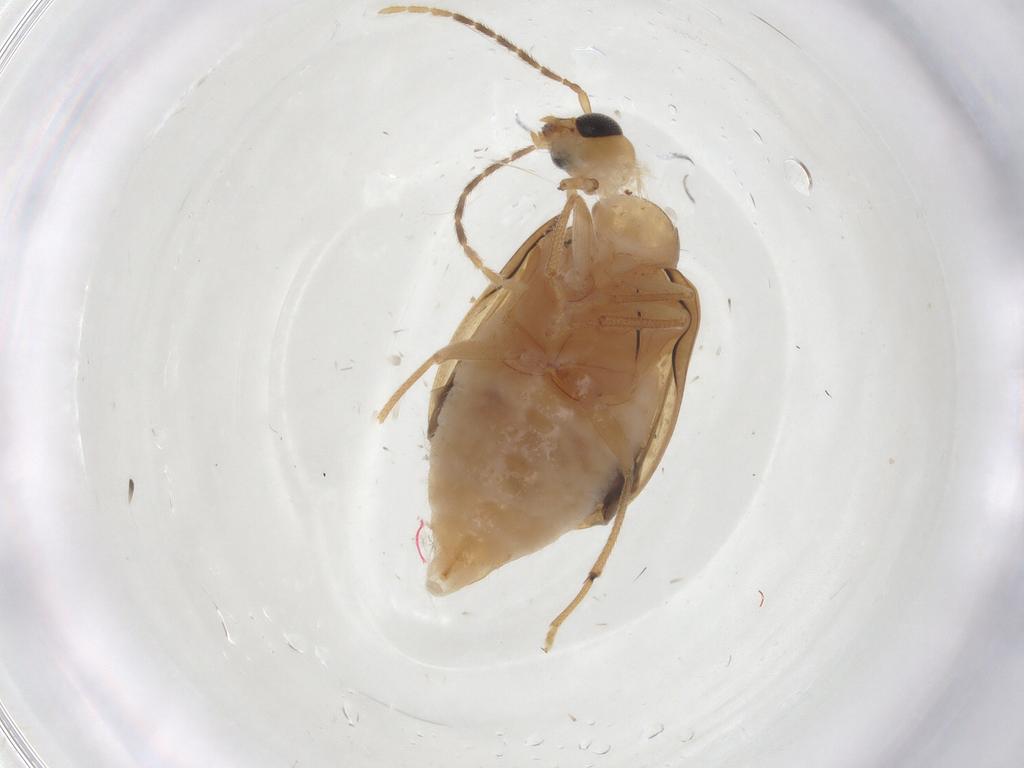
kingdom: Animalia
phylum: Arthropoda
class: Insecta
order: Coleoptera
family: Chrysomelidae
